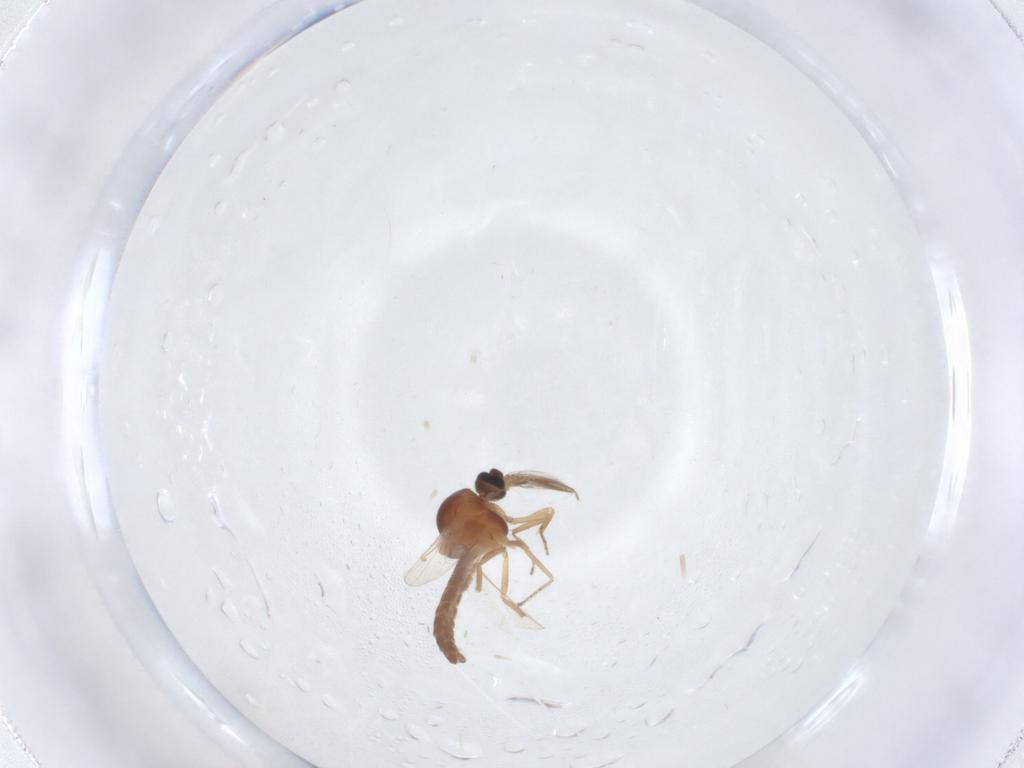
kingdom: Animalia
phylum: Arthropoda
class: Insecta
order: Diptera
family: Ceratopogonidae
